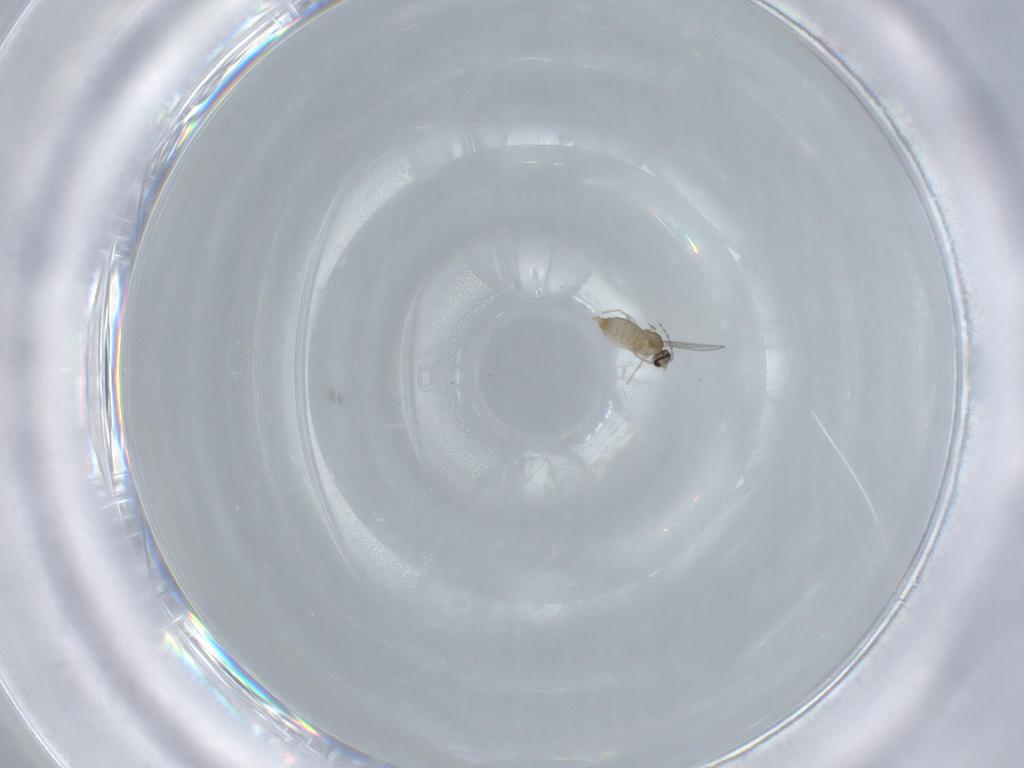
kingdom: Animalia
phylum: Arthropoda
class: Insecta
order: Diptera
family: Cecidomyiidae
